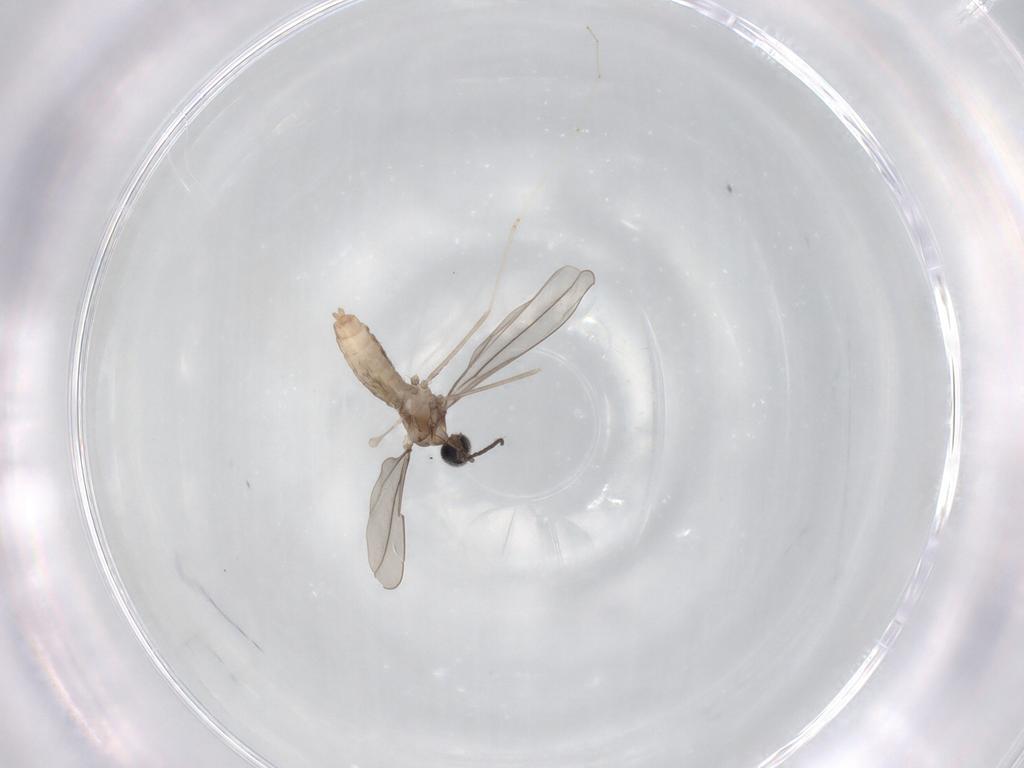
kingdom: Animalia
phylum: Arthropoda
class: Insecta
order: Diptera
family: Cecidomyiidae
